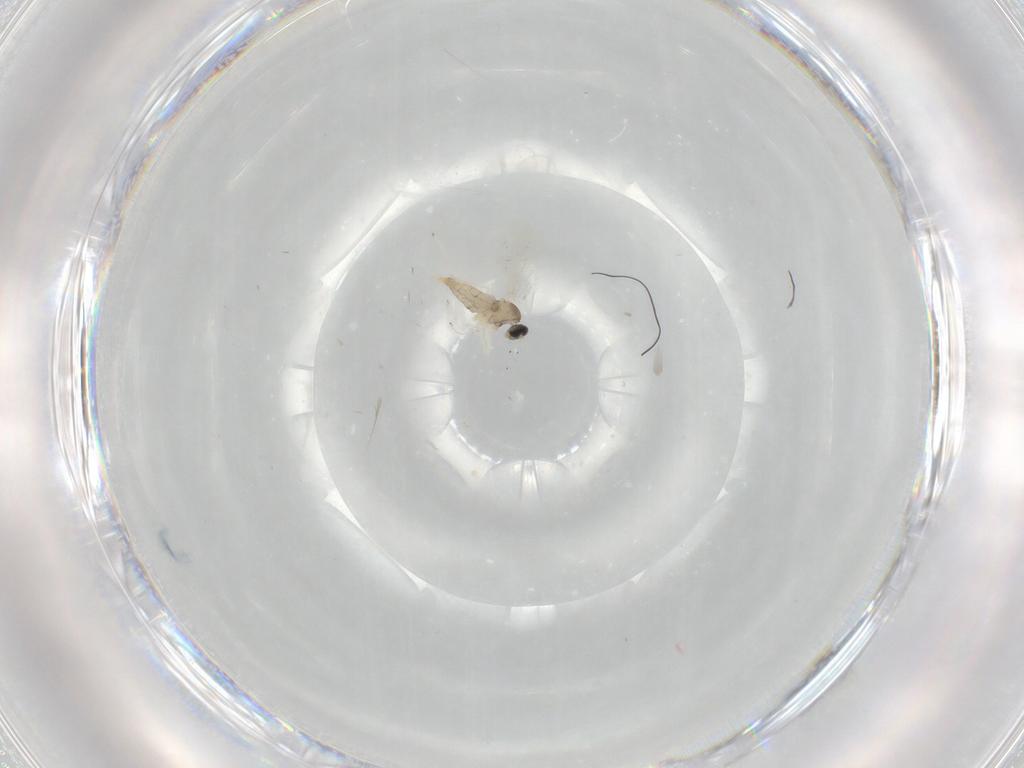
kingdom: Animalia
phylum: Arthropoda
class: Insecta
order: Diptera
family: Cecidomyiidae
